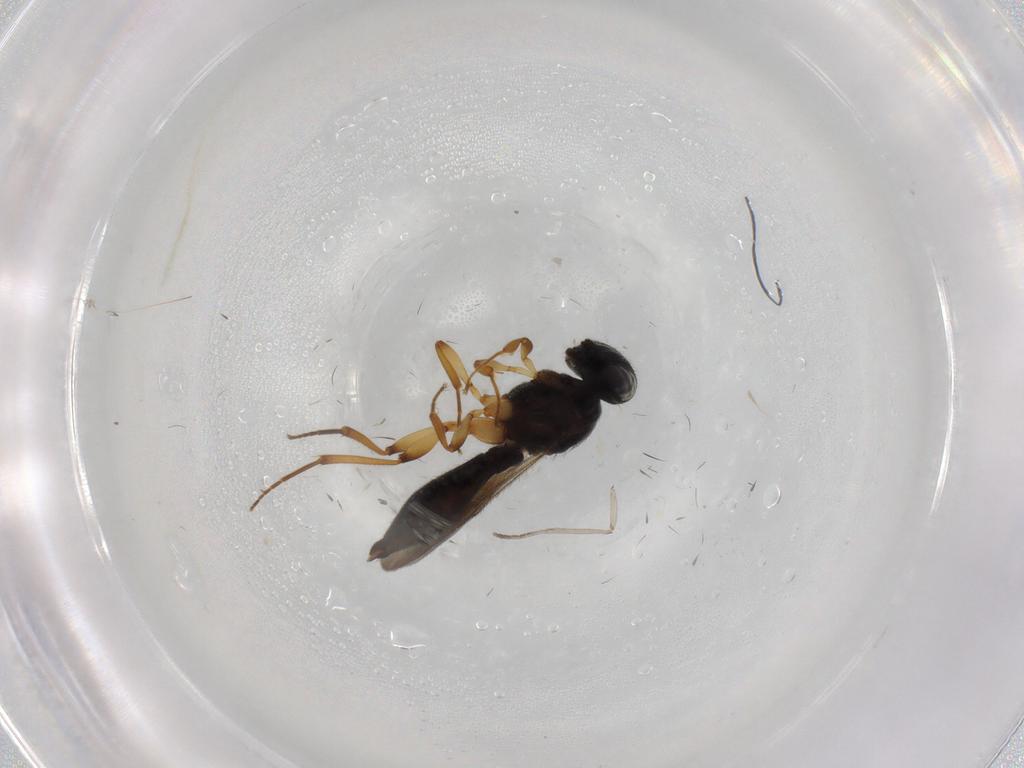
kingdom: Animalia
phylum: Arthropoda
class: Insecta
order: Hymenoptera
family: Scelionidae
